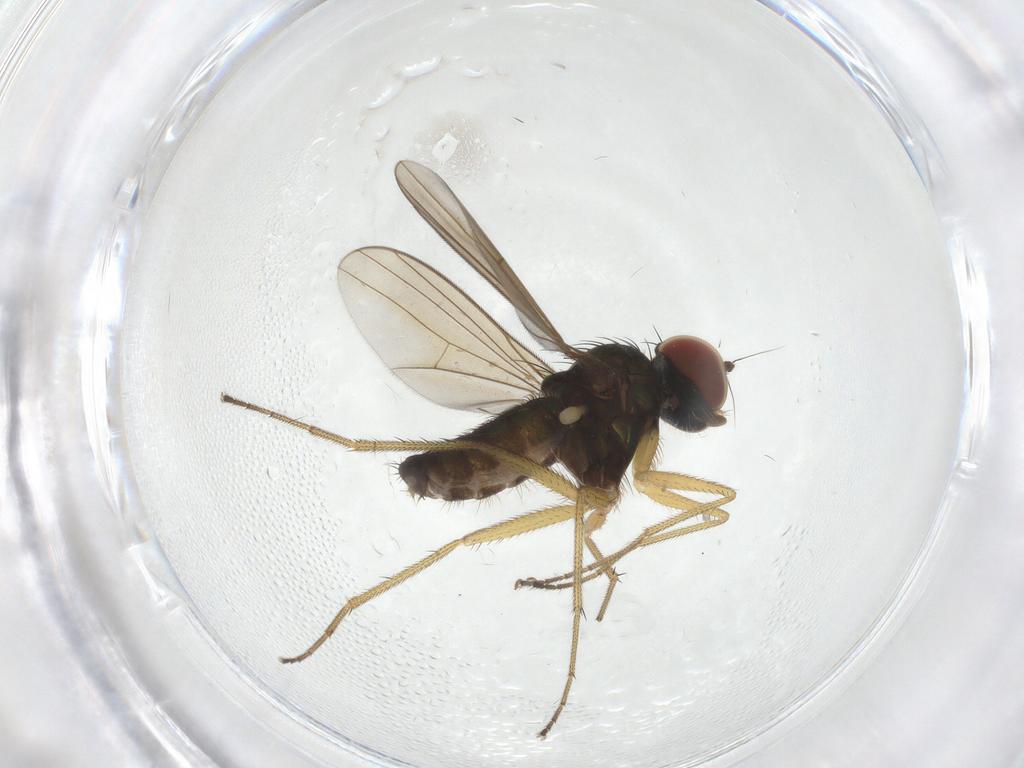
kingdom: Animalia
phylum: Arthropoda
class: Insecta
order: Diptera
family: Dolichopodidae
